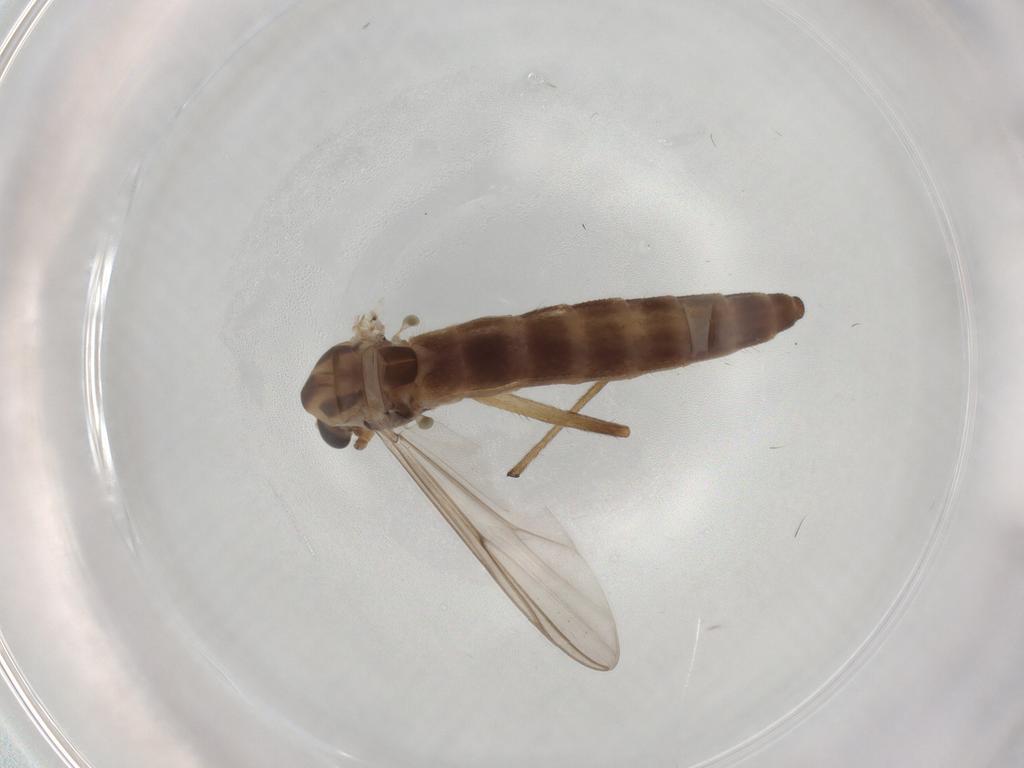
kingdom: Animalia
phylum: Arthropoda
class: Insecta
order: Diptera
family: Chironomidae
